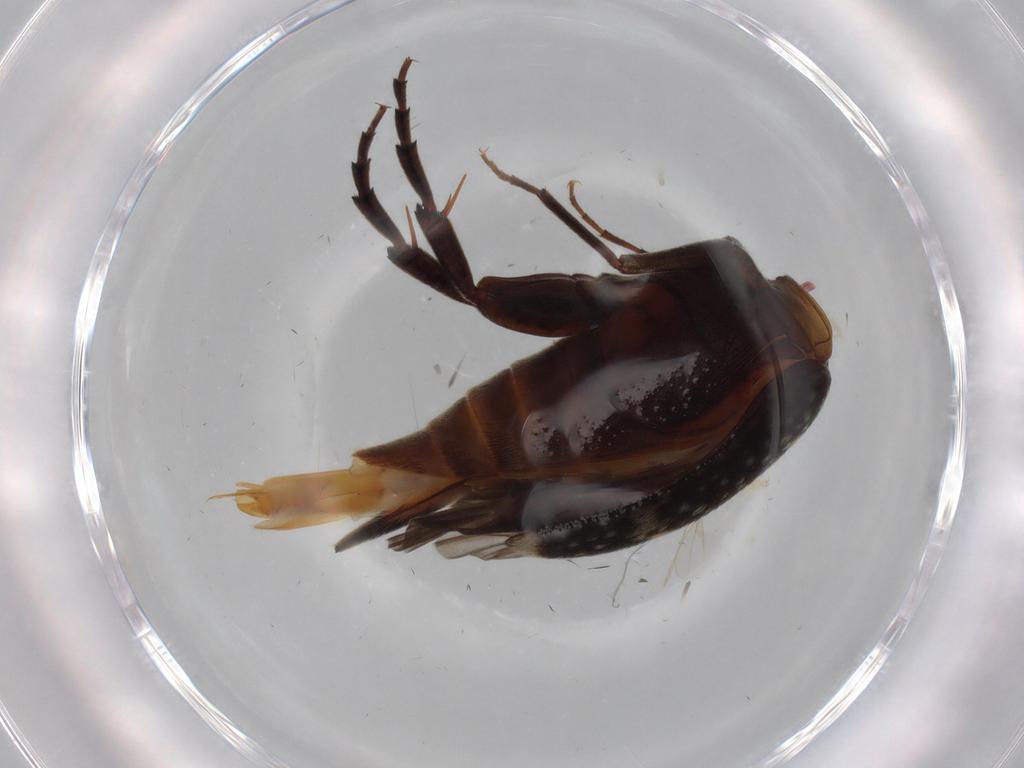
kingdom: Animalia
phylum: Arthropoda
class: Insecta
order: Coleoptera
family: Mordellidae
